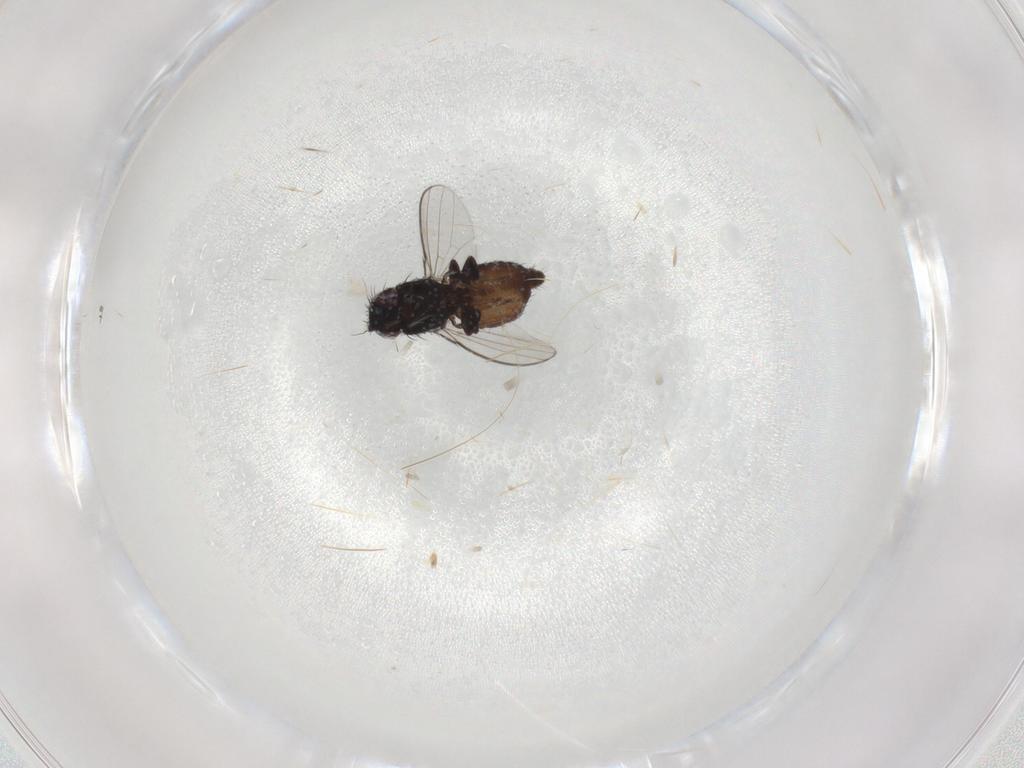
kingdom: Animalia
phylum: Arthropoda
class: Insecta
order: Diptera
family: Milichiidae
